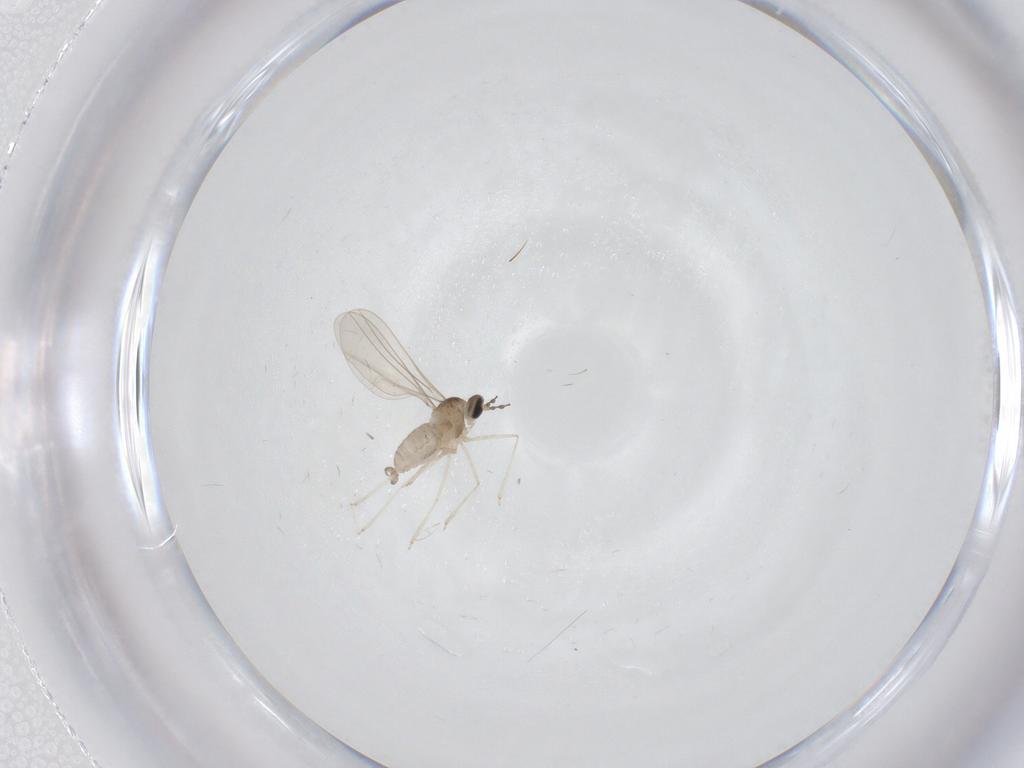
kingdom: Animalia
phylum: Arthropoda
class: Insecta
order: Diptera
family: Cecidomyiidae
